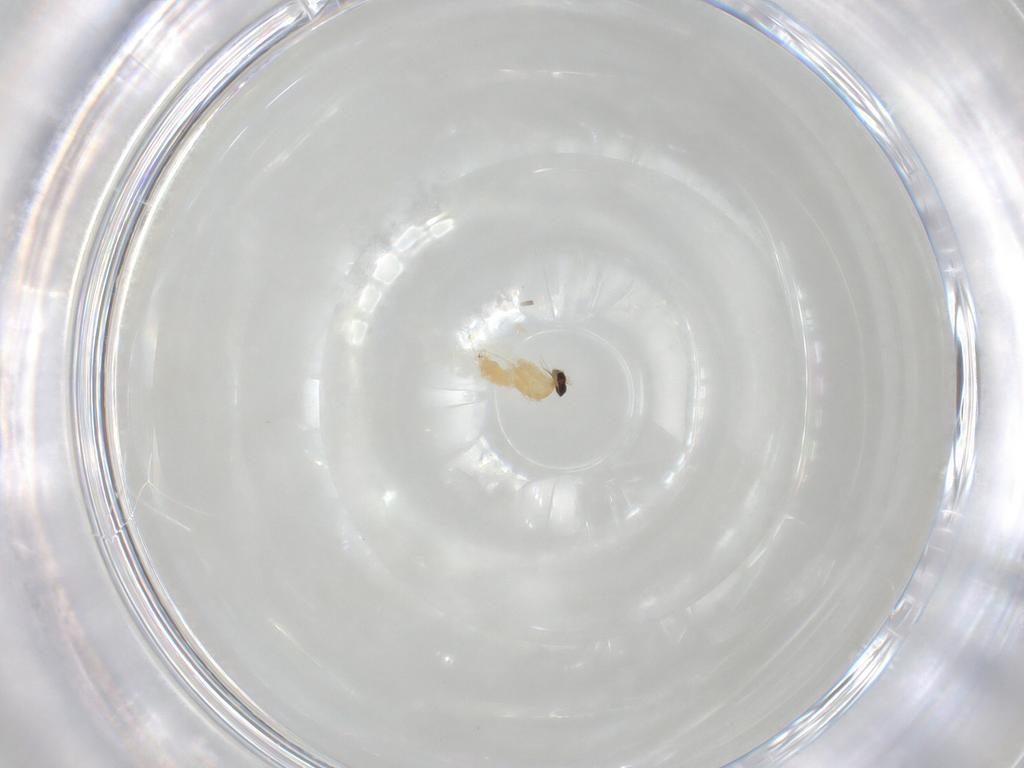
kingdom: Animalia
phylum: Arthropoda
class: Insecta
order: Diptera
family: Cecidomyiidae
